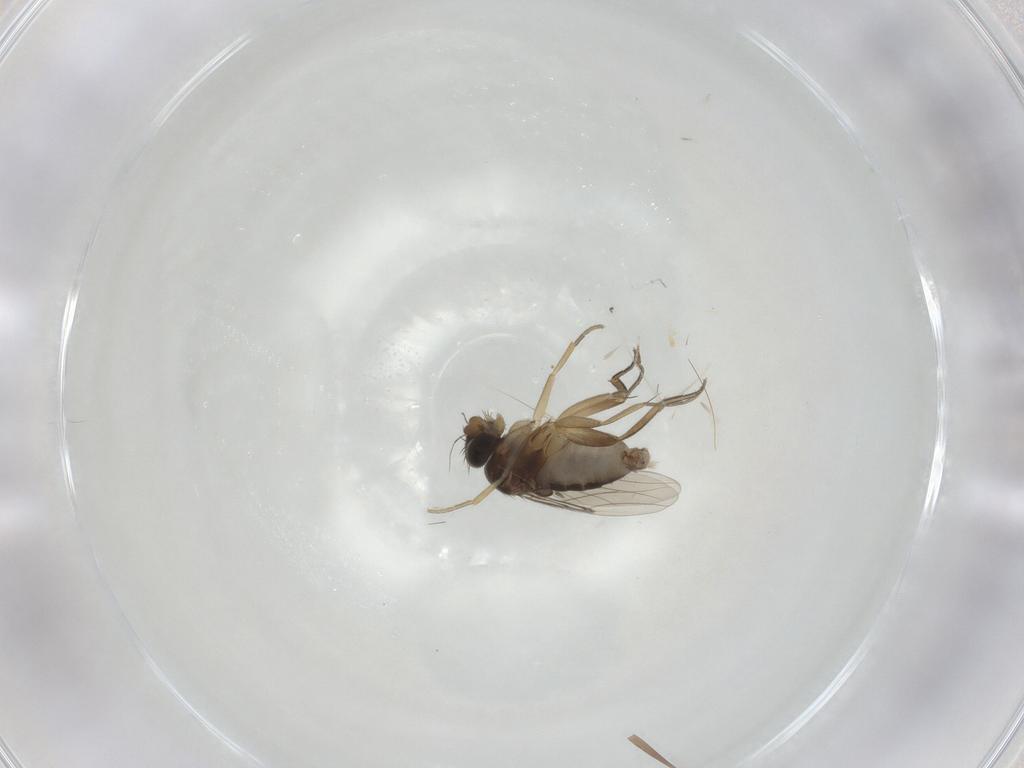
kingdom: Animalia
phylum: Arthropoda
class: Insecta
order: Diptera
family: Phoridae
